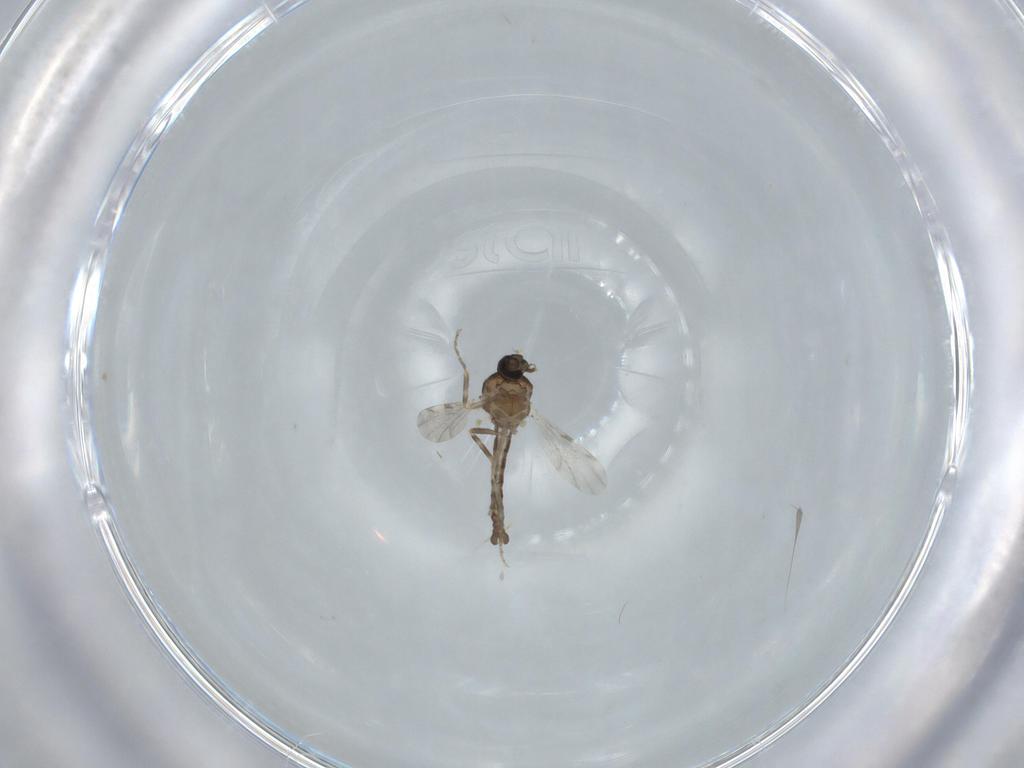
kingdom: Animalia
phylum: Arthropoda
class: Insecta
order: Diptera
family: Ceratopogonidae
